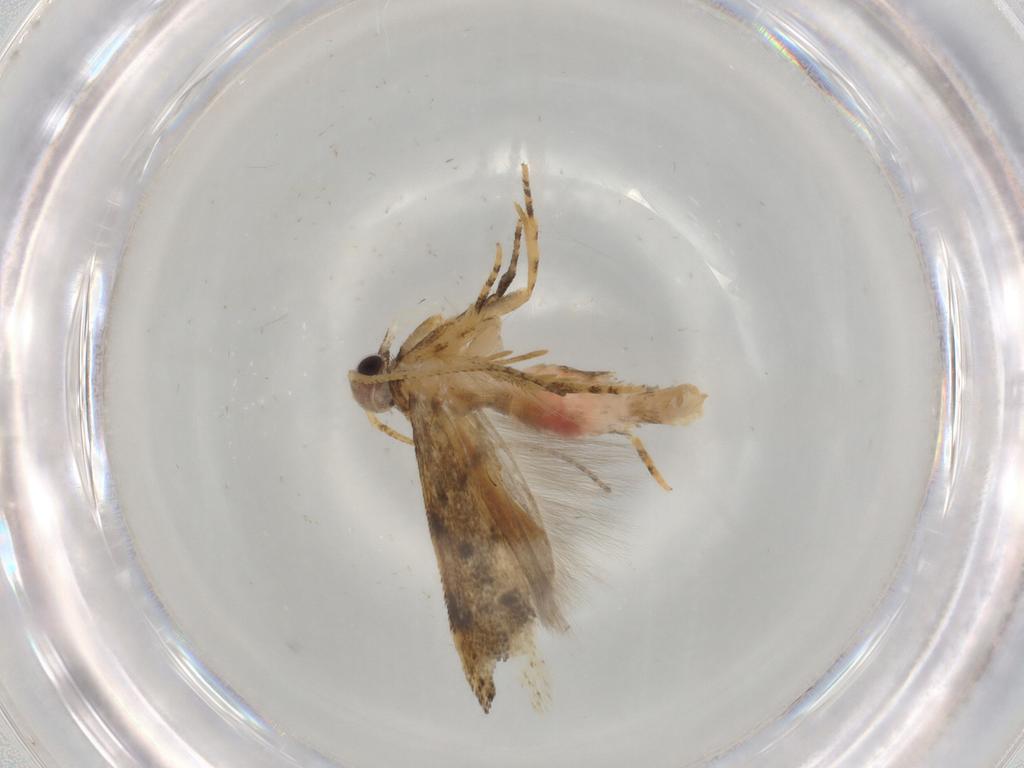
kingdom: Animalia
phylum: Arthropoda
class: Insecta
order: Lepidoptera
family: Gelechiidae
